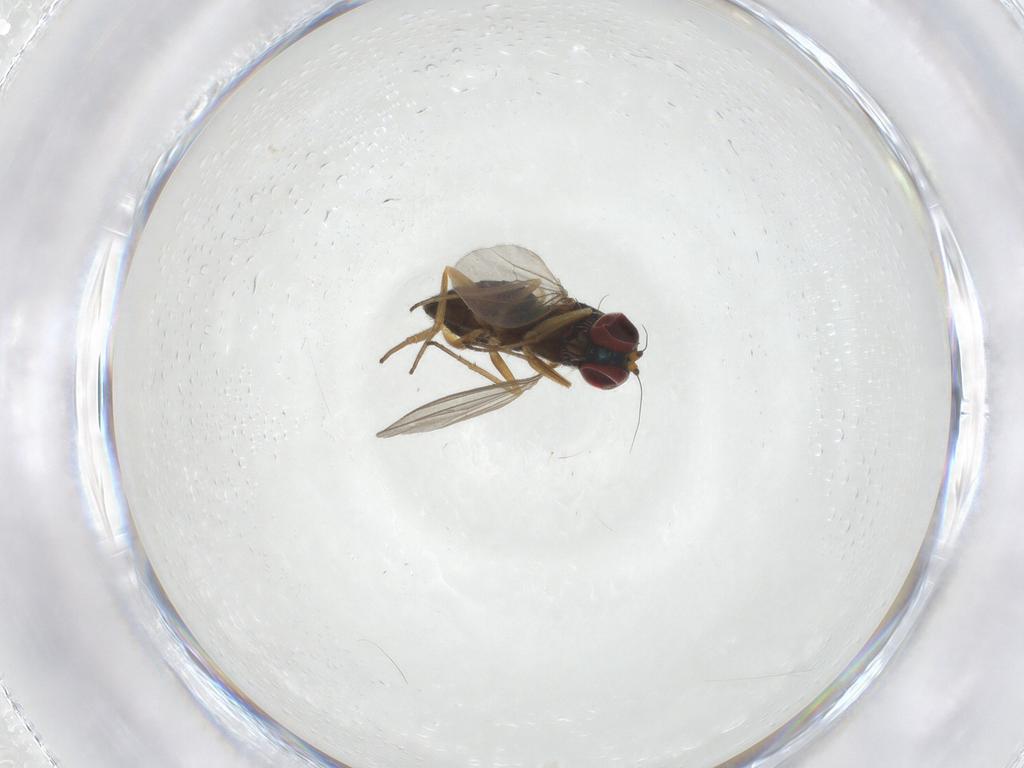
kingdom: Animalia
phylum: Arthropoda
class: Insecta
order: Diptera
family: Dolichopodidae
